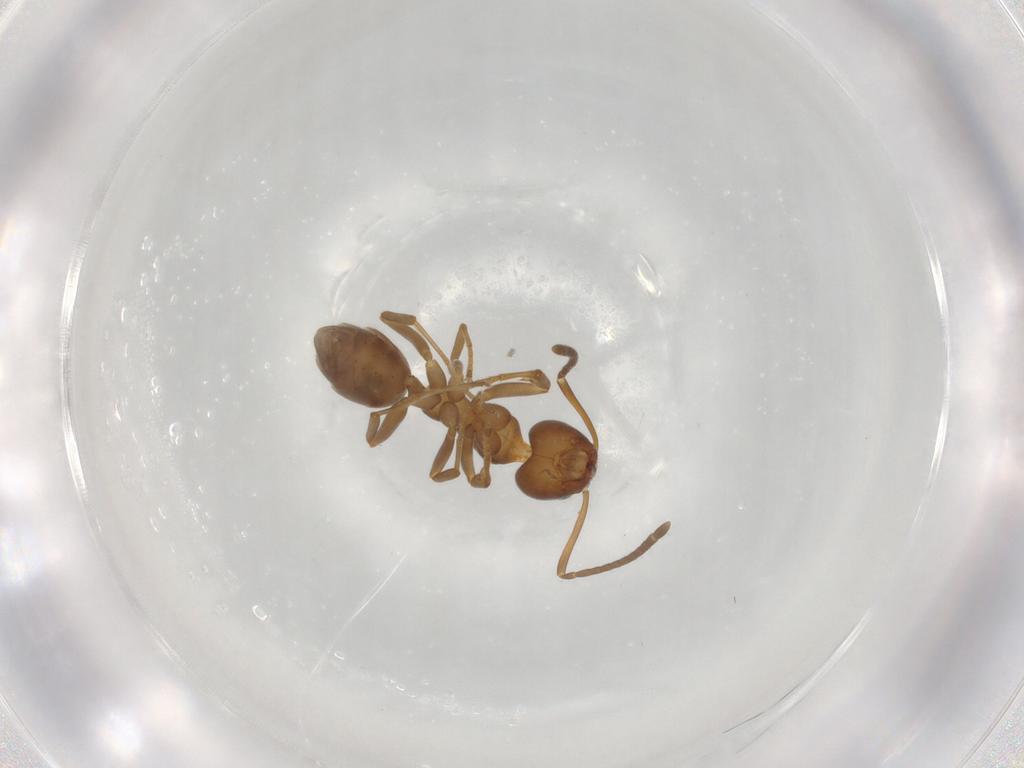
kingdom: Animalia
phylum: Arthropoda
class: Insecta
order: Hymenoptera
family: Formicidae
